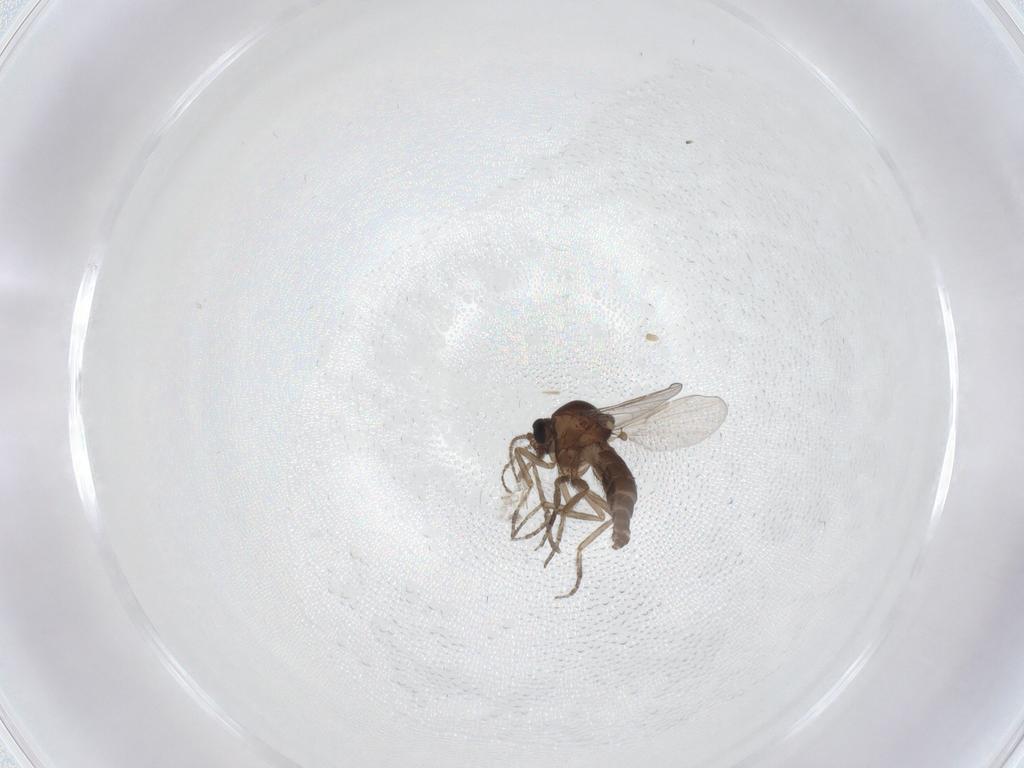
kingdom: Animalia
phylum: Arthropoda
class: Insecta
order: Diptera
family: Ceratopogonidae
